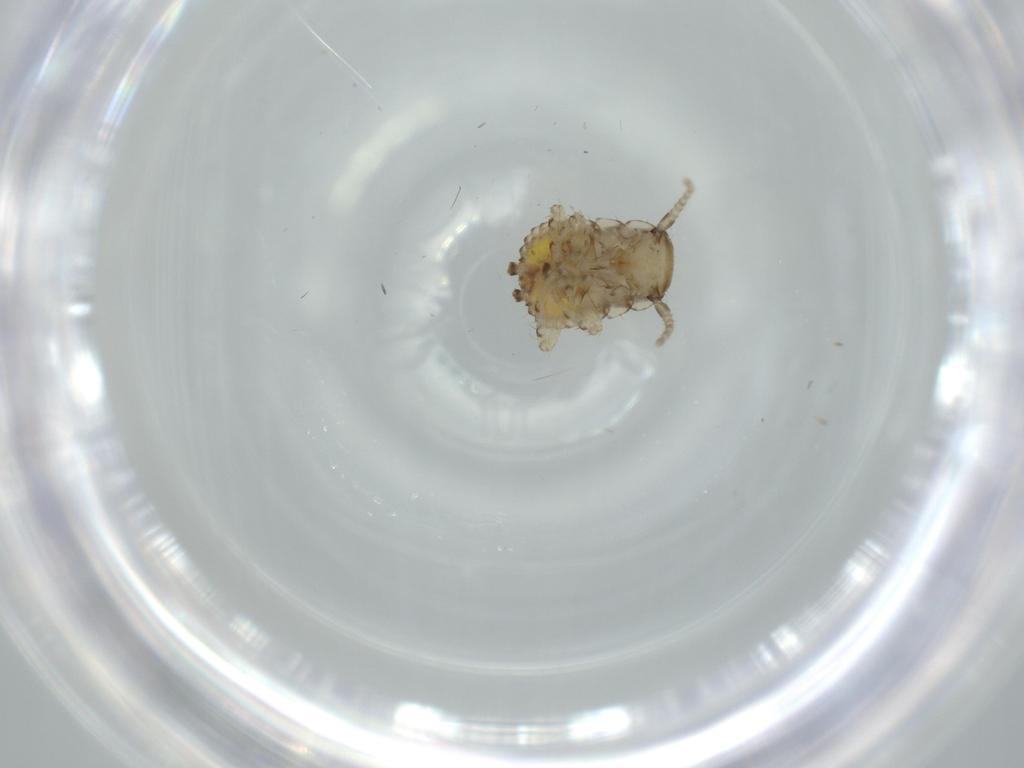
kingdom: Animalia
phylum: Arthropoda
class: Insecta
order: Blattodea
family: Ectobiidae
